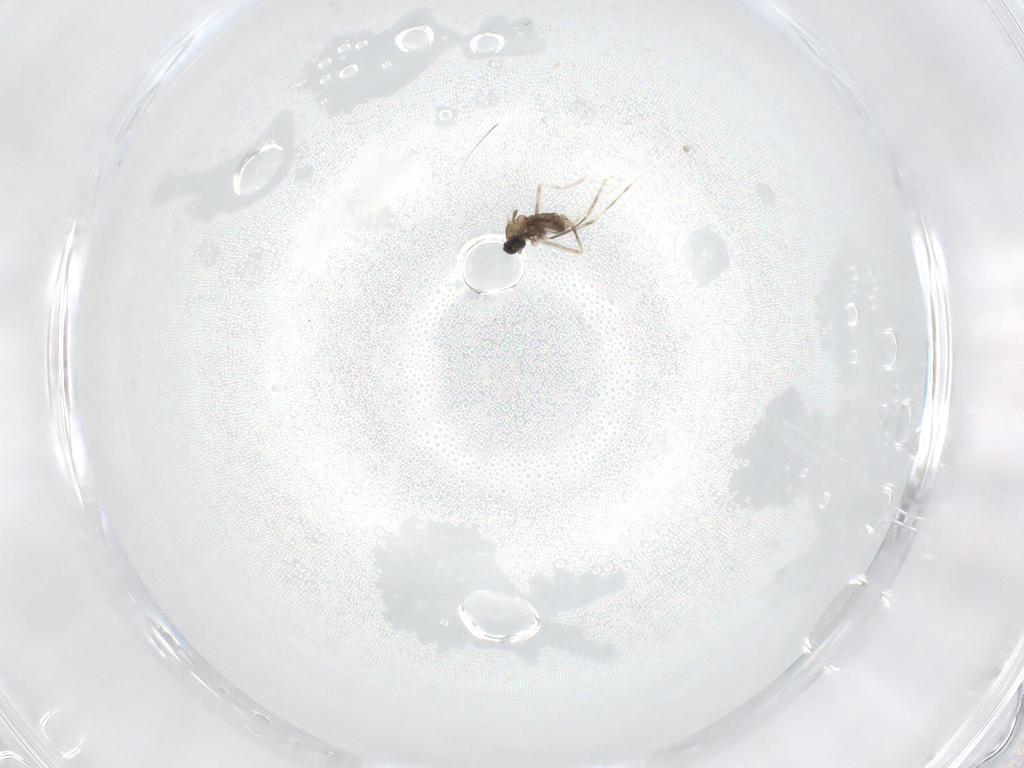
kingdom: Animalia
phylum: Arthropoda
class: Insecta
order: Diptera
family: Cecidomyiidae
